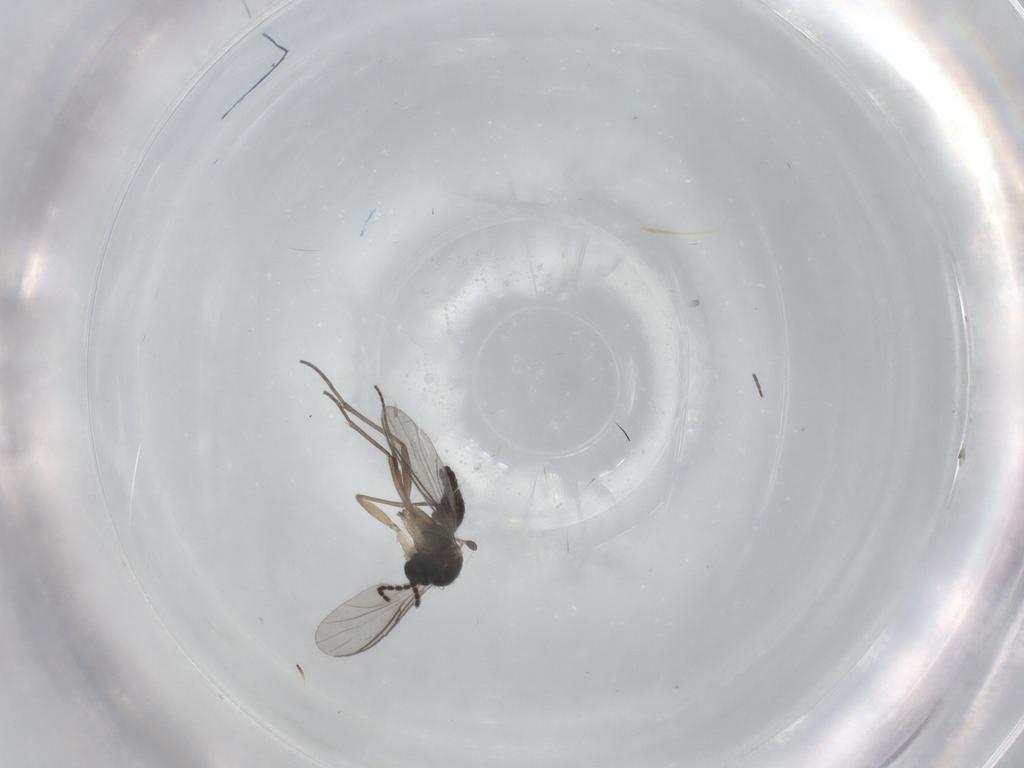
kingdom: Animalia
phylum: Arthropoda
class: Insecta
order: Diptera
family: Sciaridae
